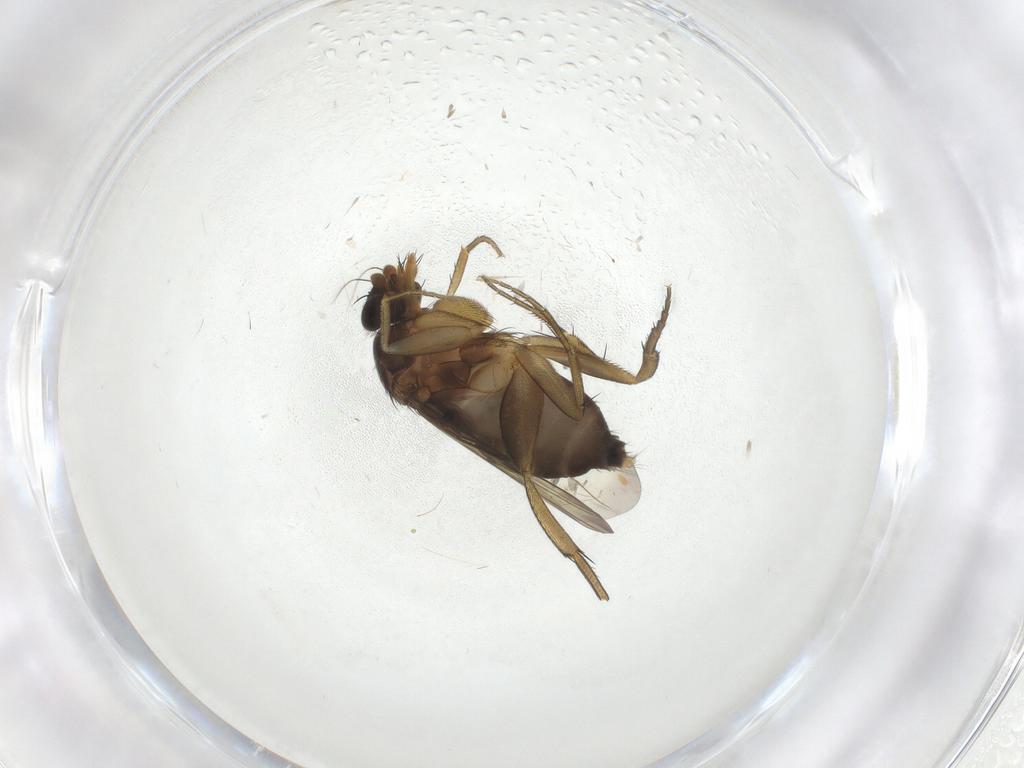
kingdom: Animalia
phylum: Arthropoda
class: Insecta
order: Diptera
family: Phoridae
